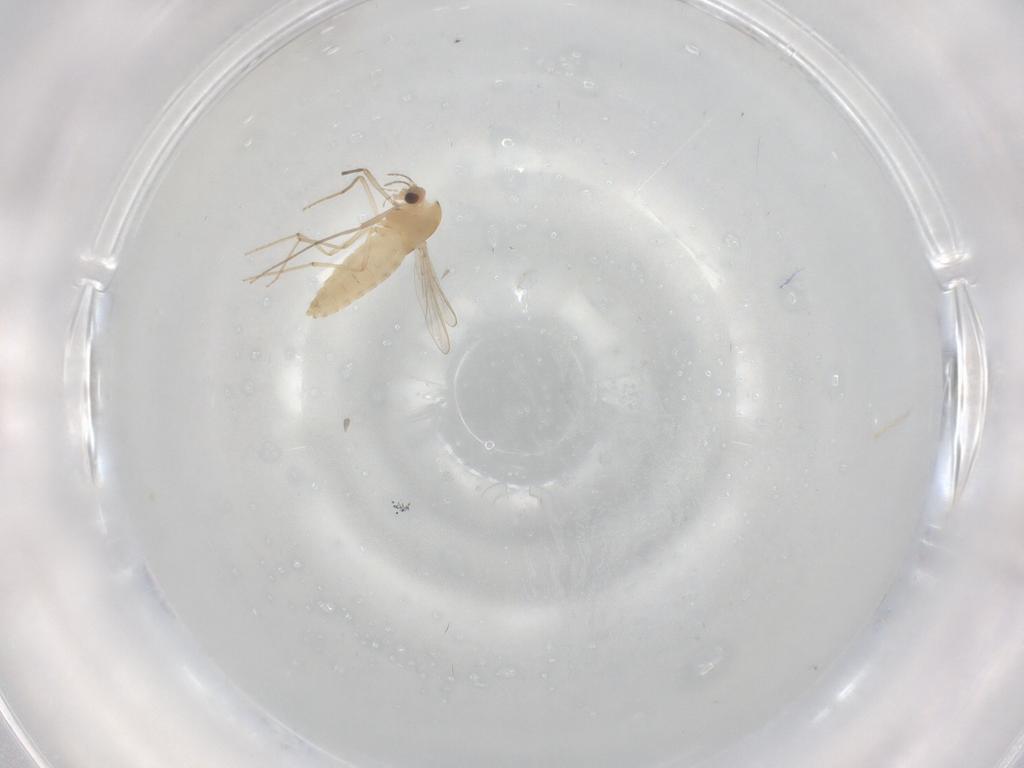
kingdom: Animalia
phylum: Arthropoda
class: Insecta
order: Diptera
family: Chironomidae
